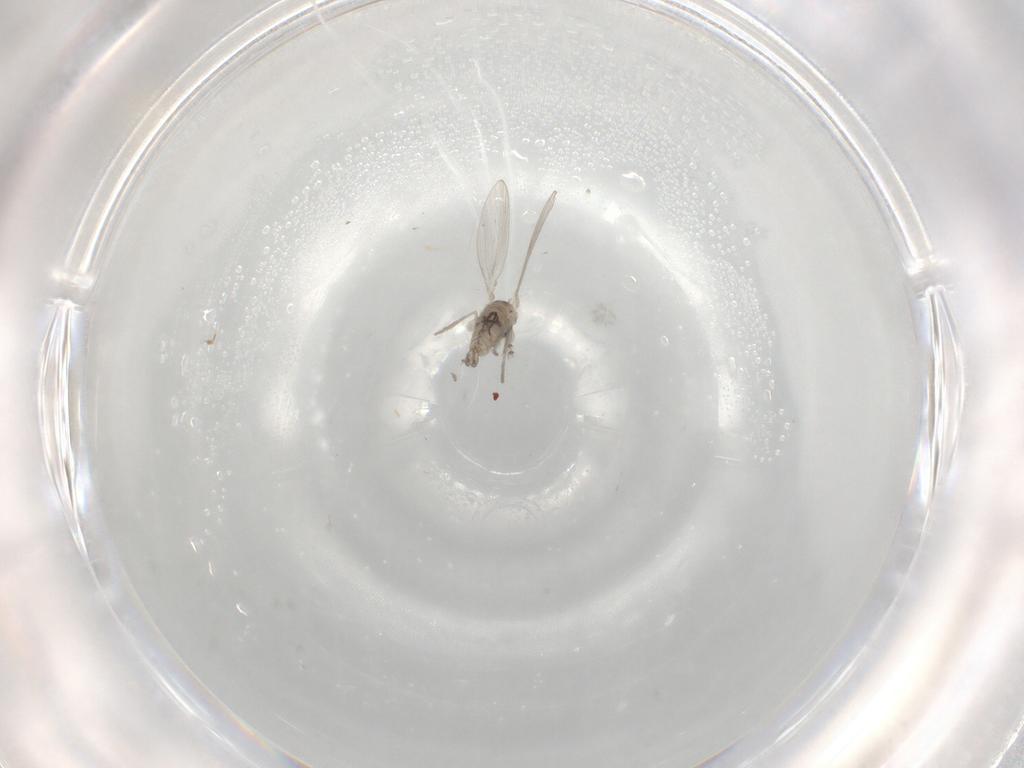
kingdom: Animalia
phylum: Arthropoda
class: Insecta
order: Diptera
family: Psychodidae
